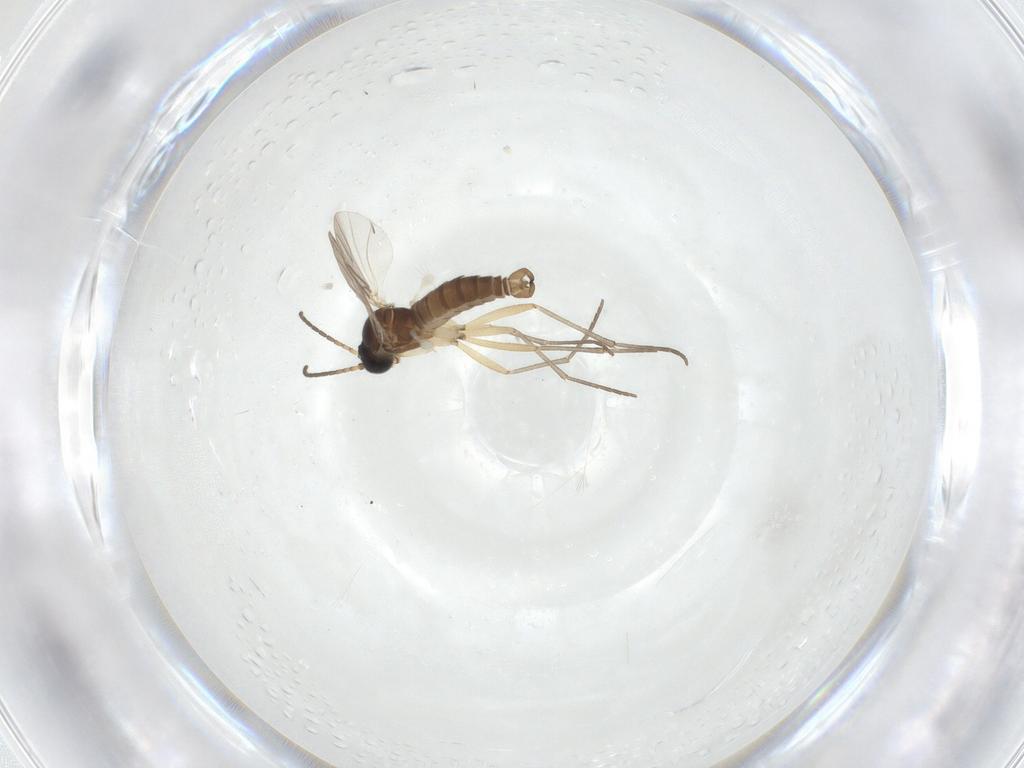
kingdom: Animalia
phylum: Arthropoda
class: Insecta
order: Diptera
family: Sciaridae
